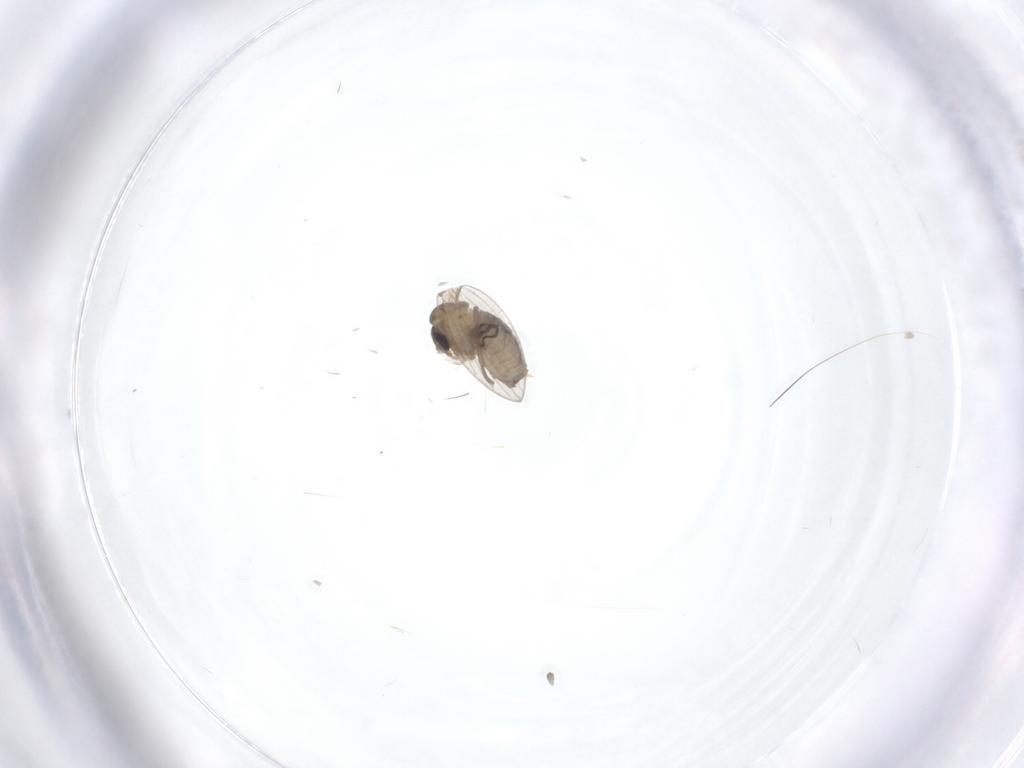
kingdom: Animalia
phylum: Arthropoda
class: Insecta
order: Diptera
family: Psychodidae
